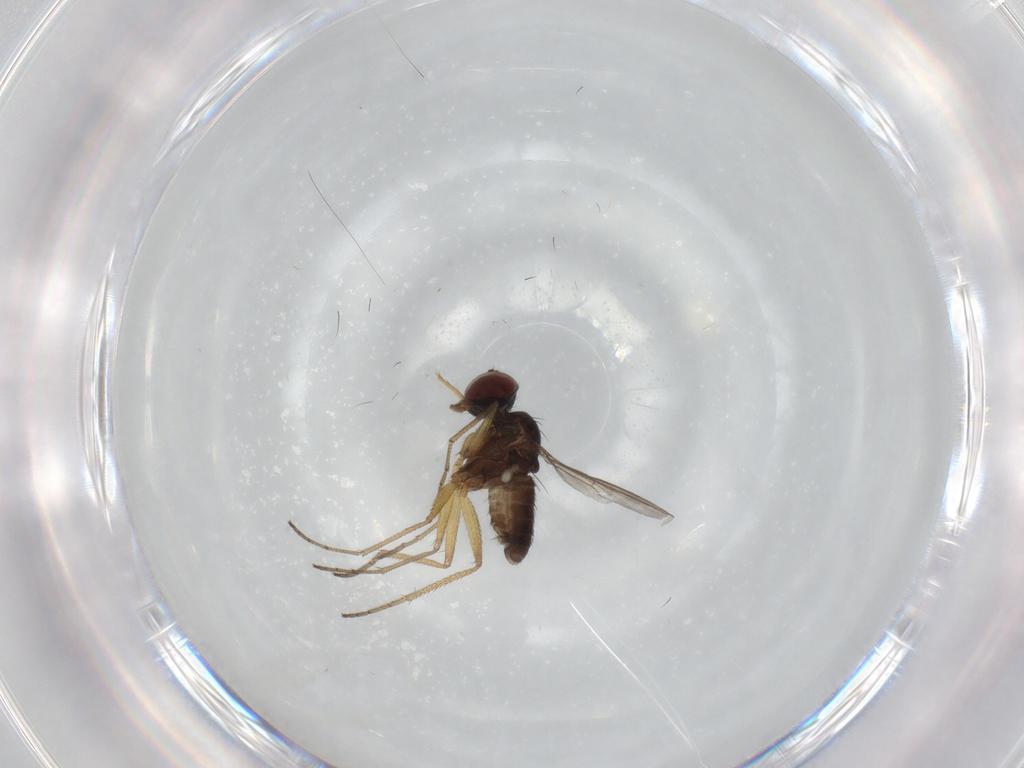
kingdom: Animalia
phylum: Arthropoda
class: Insecta
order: Diptera
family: Dolichopodidae
